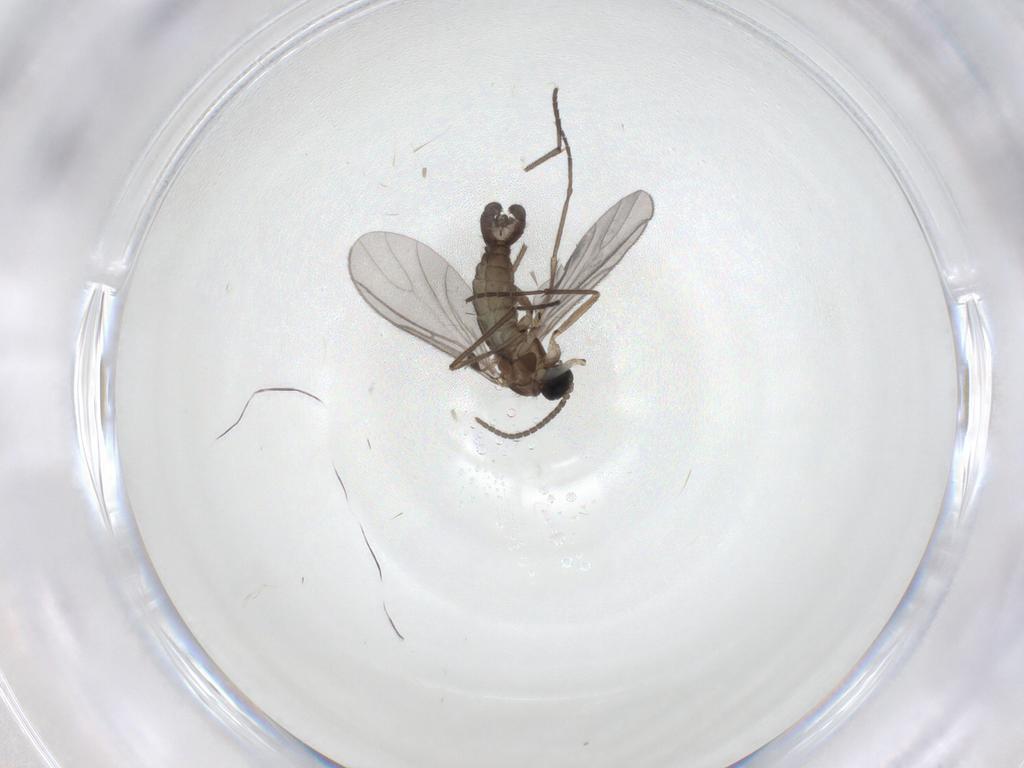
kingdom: Animalia
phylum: Arthropoda
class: Insecta
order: Diptera
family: Sciaridae
